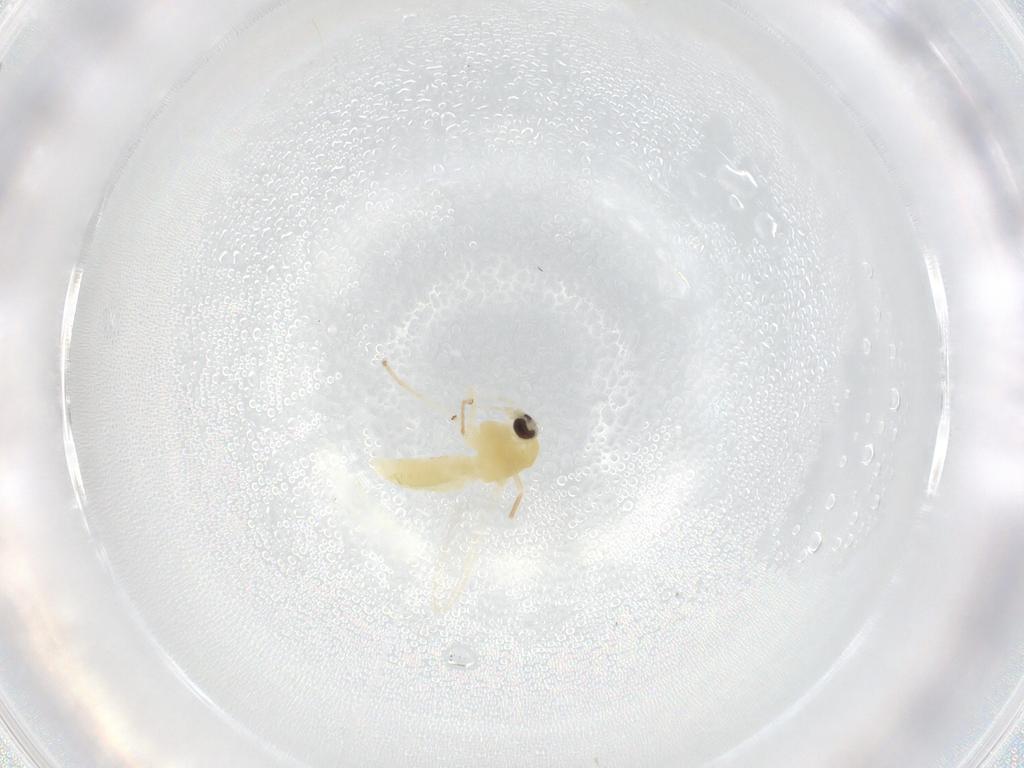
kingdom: Animalia
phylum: Arthropoda
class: Insecta
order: Diptera
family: Chironomidae
